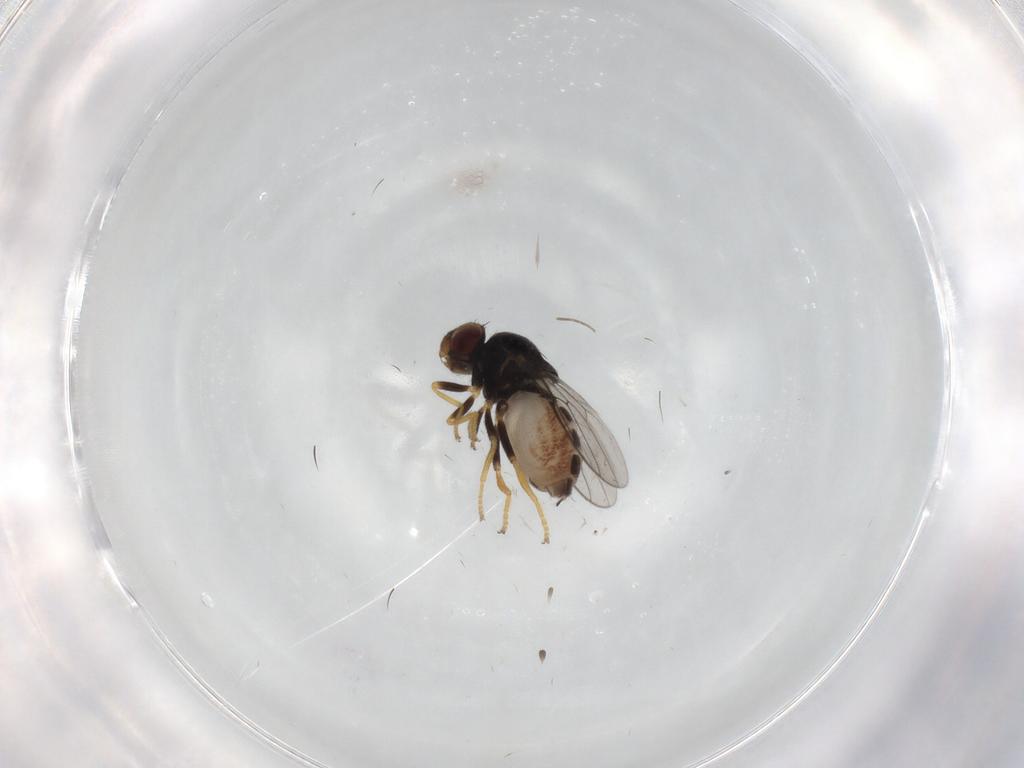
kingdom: Animalia
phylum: Arthropoda
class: Insecta
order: Diptera
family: Chloropidae
